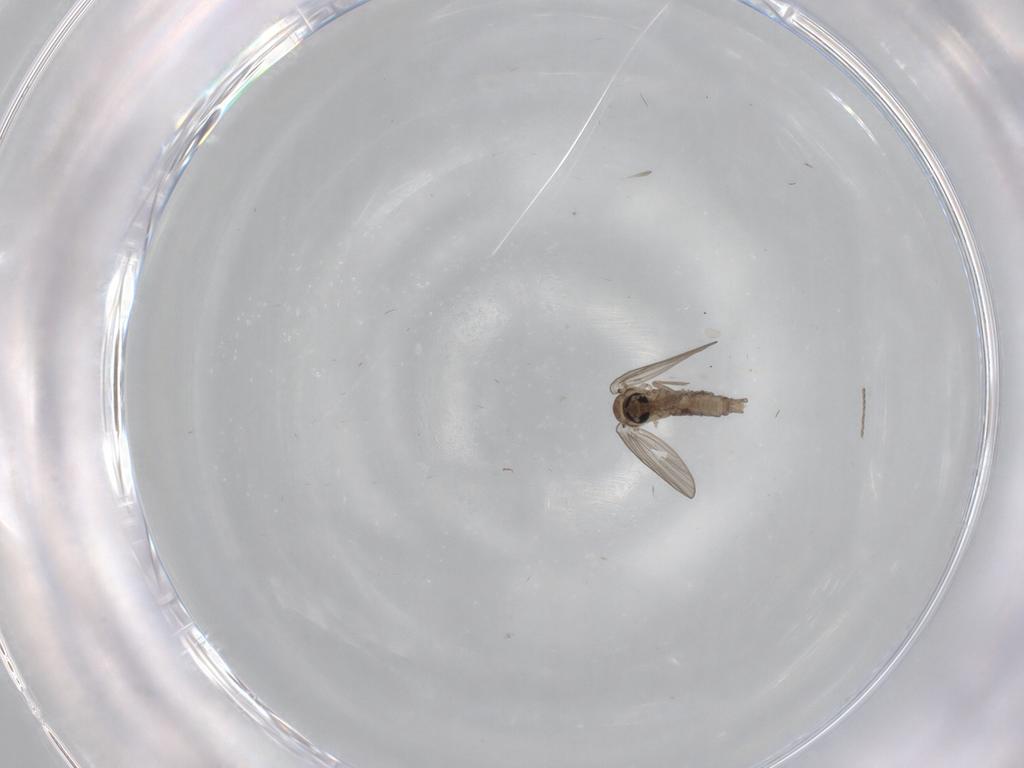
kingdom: Animalia
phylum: Arthropoda
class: Insecta
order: Diptera
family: Psychodidae
